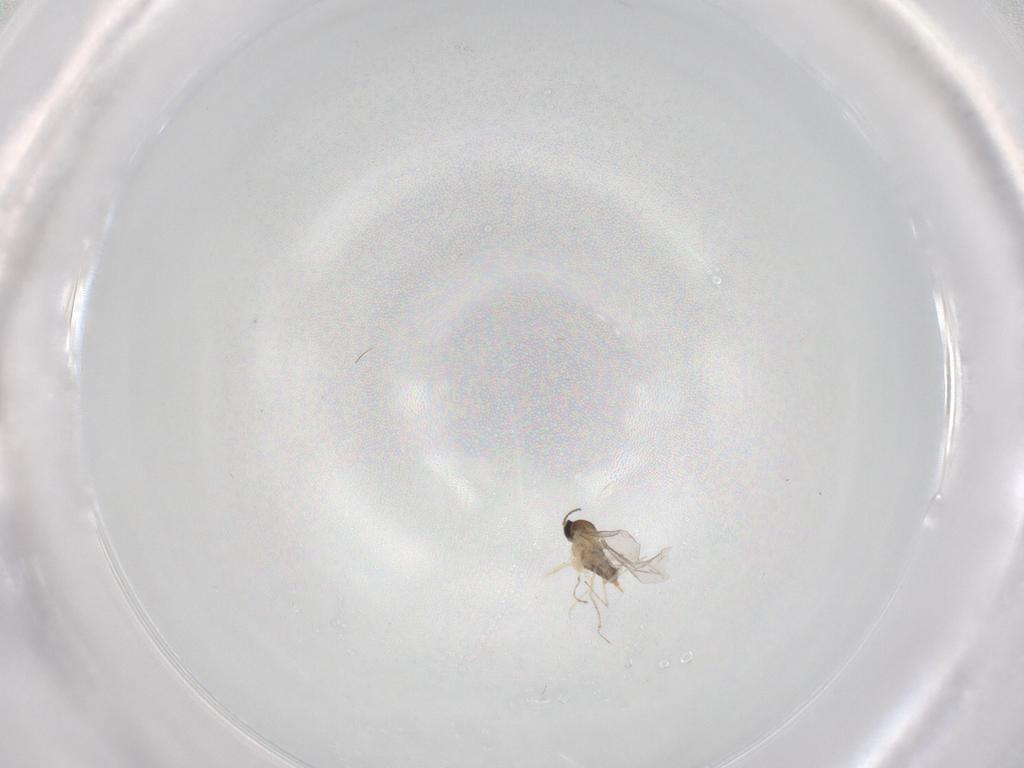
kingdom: Animalia
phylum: Arthropoda
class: Insecta
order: Diptera
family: Cecidomyiidae
